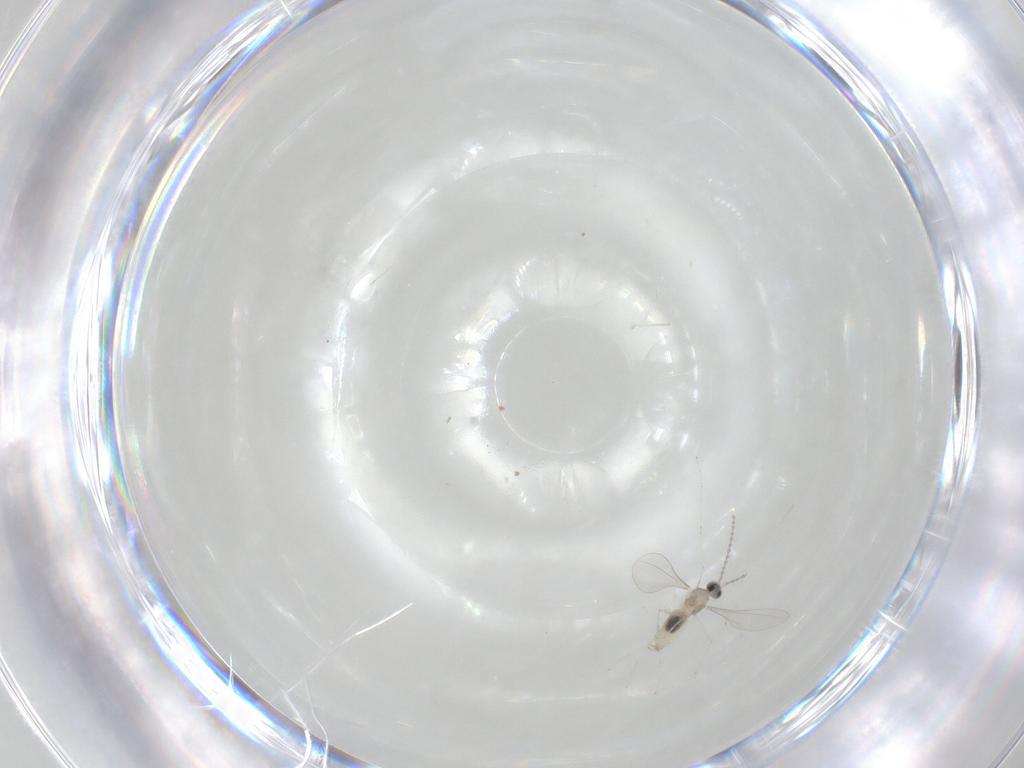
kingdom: Animalia
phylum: Arthropoda
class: Insecta
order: Diptera
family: Cecidomyiidae
